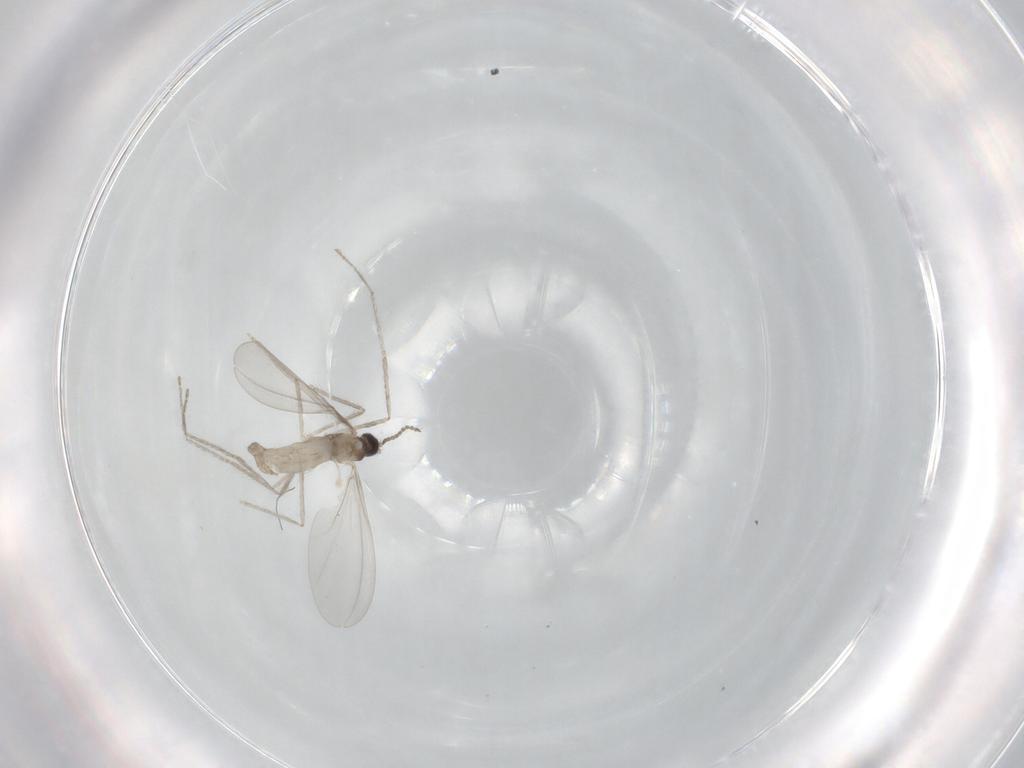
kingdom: Animalia
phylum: Arthropoda
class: Insecta
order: Diptera
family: Cecidomyiidae
